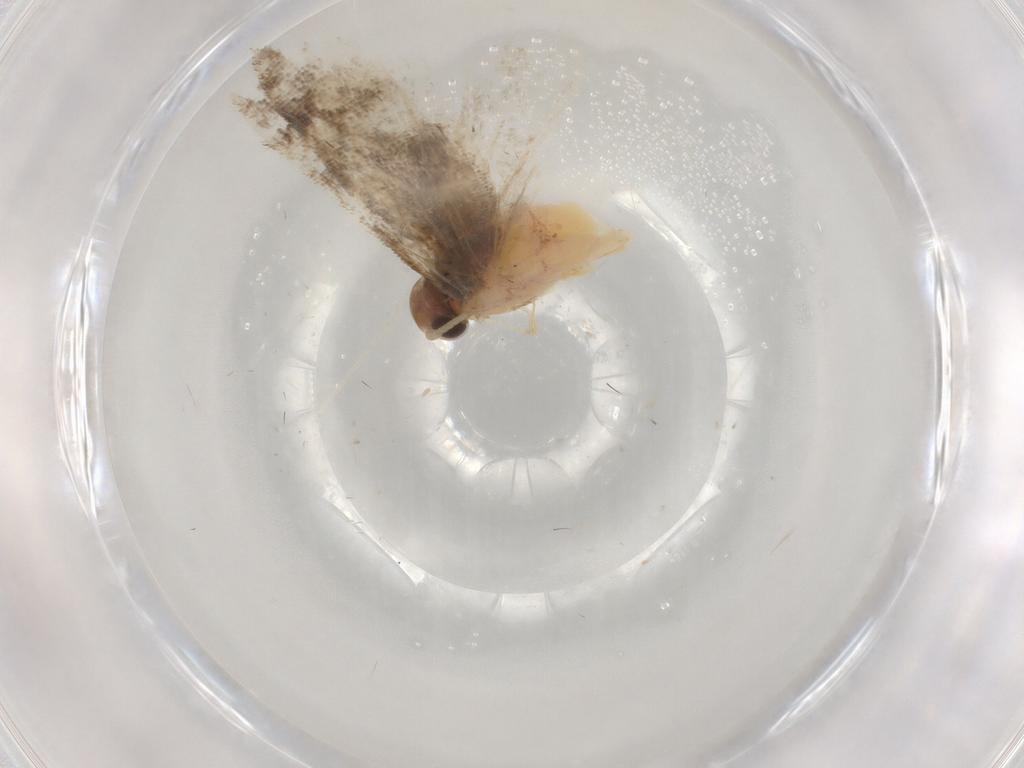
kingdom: Animalia
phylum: Arthropoda
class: Insecta
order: Lepidoptera
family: Gelechiidae
